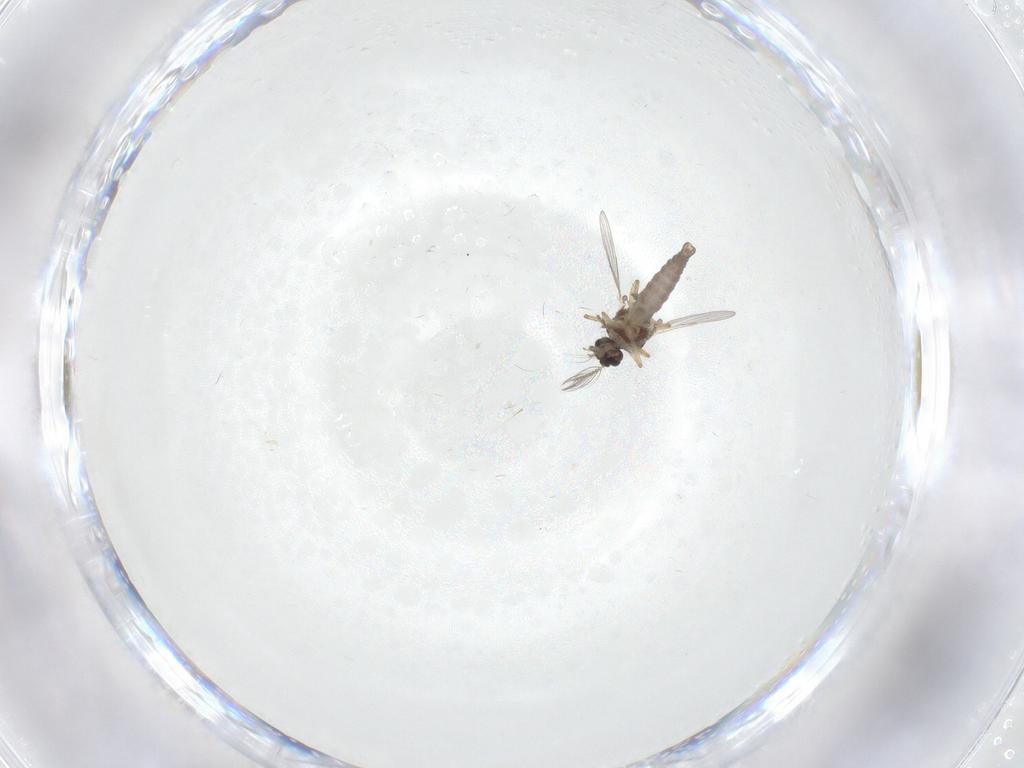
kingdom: Animalia
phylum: Arthropoda
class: Insecta
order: Diptera
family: Ceratopogonidae
